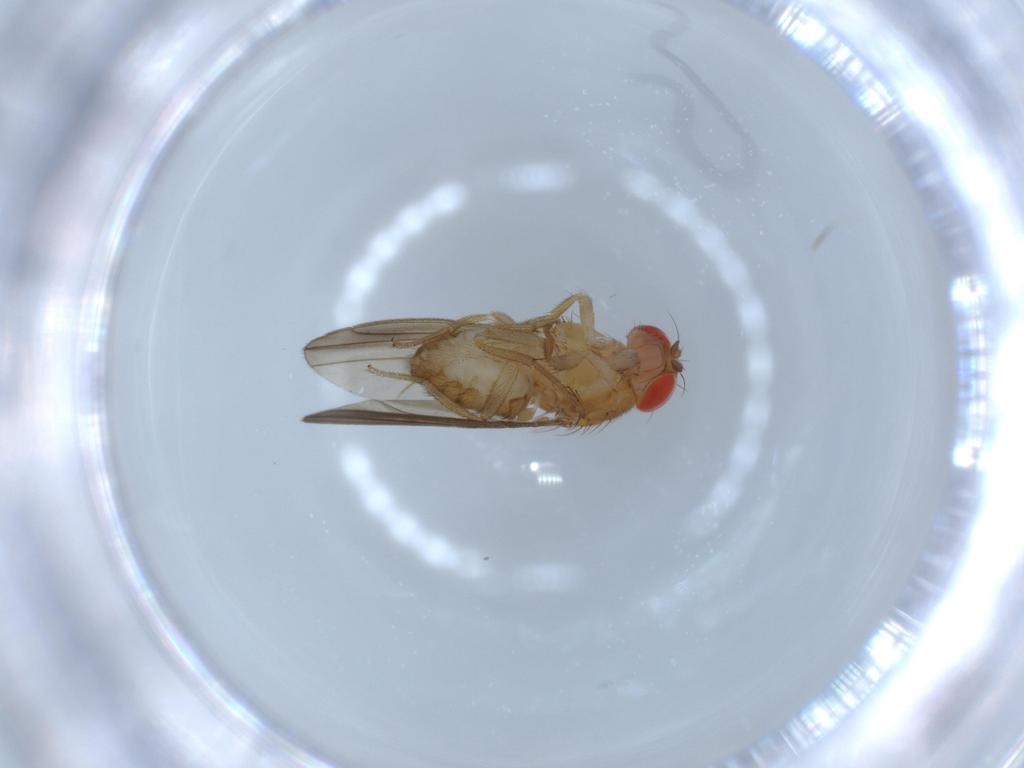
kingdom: Animalia
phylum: Arthropoda
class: Insecta
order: Diptera
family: Drosophilidae
